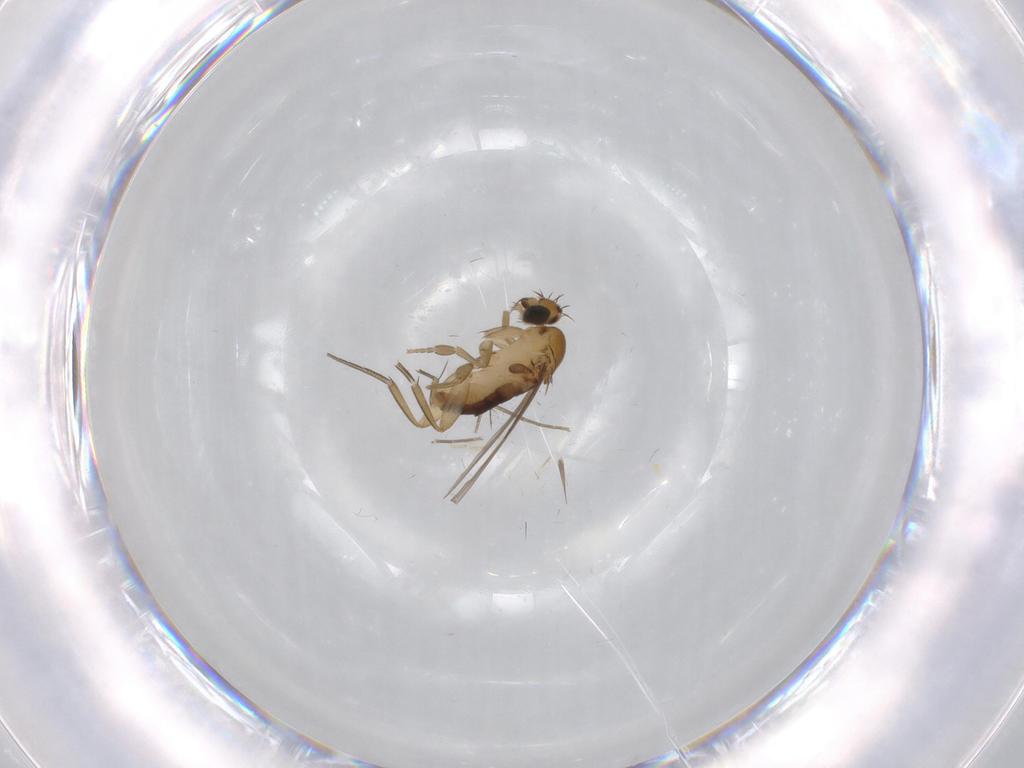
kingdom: Animalia
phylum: Arthropoda
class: Insecta
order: Diptera
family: Chironomidae
